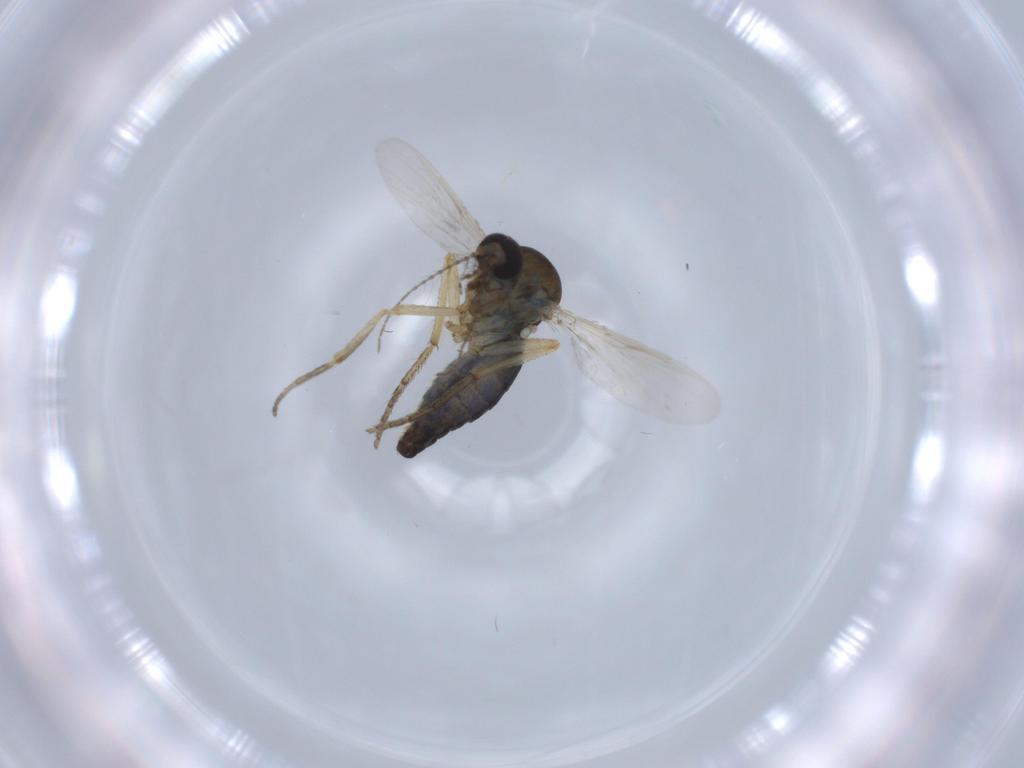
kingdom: Animalia
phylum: Arthropoda
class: Insecta
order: Diptera
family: Ceratopogonidae
